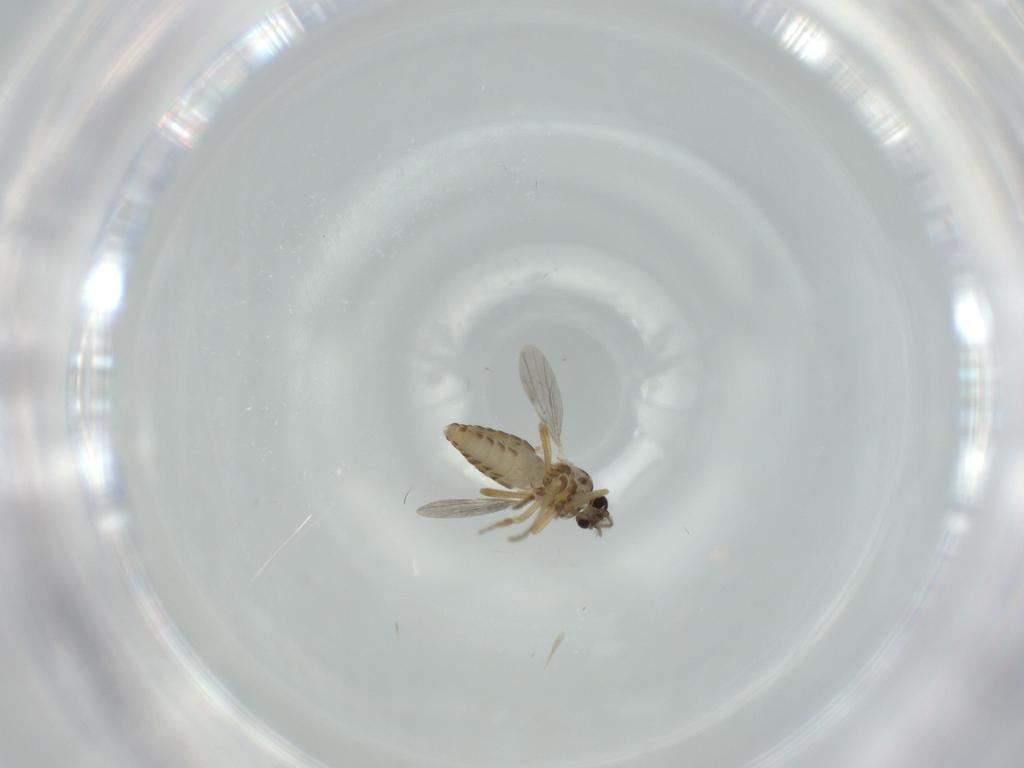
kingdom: Animalia
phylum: Arthropoda
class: Insecta
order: Diptera
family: Ceratopogonidae
